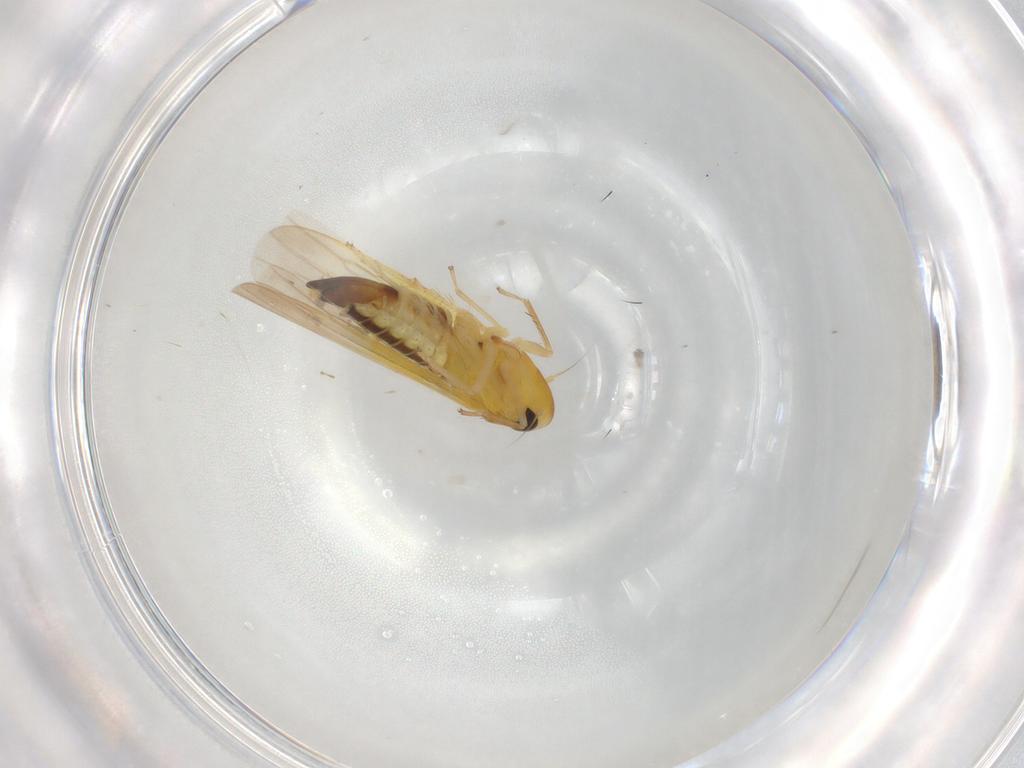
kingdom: Animalia
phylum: Arthropoda
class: Insecta
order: Hemiptera
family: Cicadellidae
